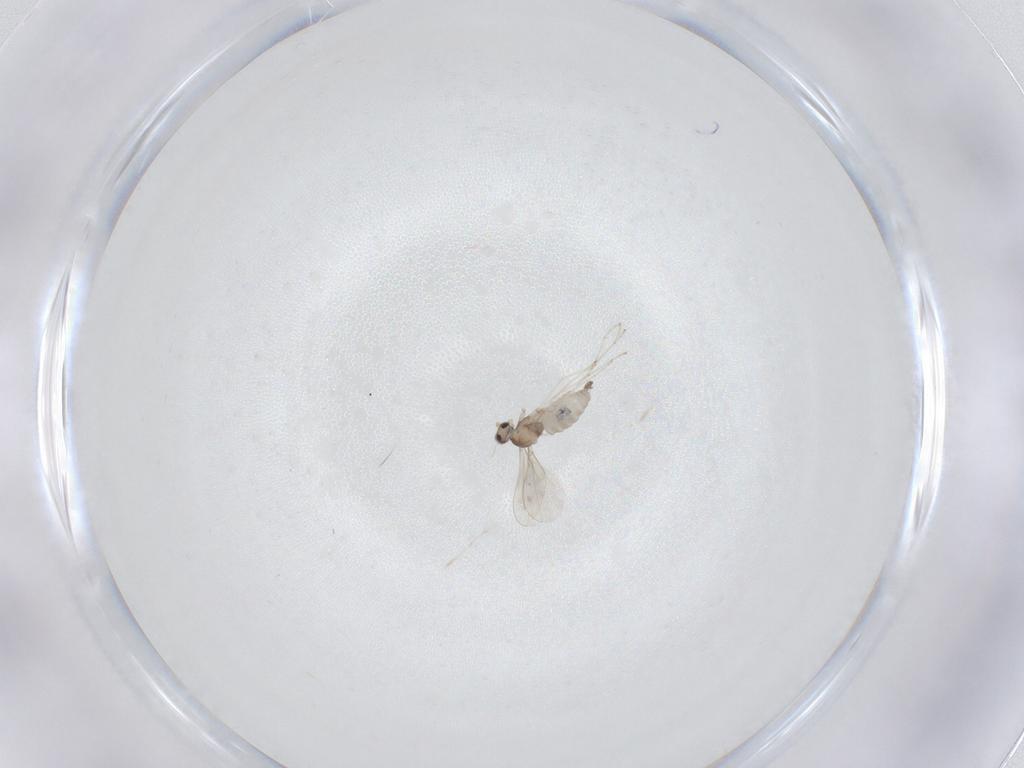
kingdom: Animalia
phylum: Arthropoda
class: Insecta
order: Diptera
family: Cecidomyiidae
